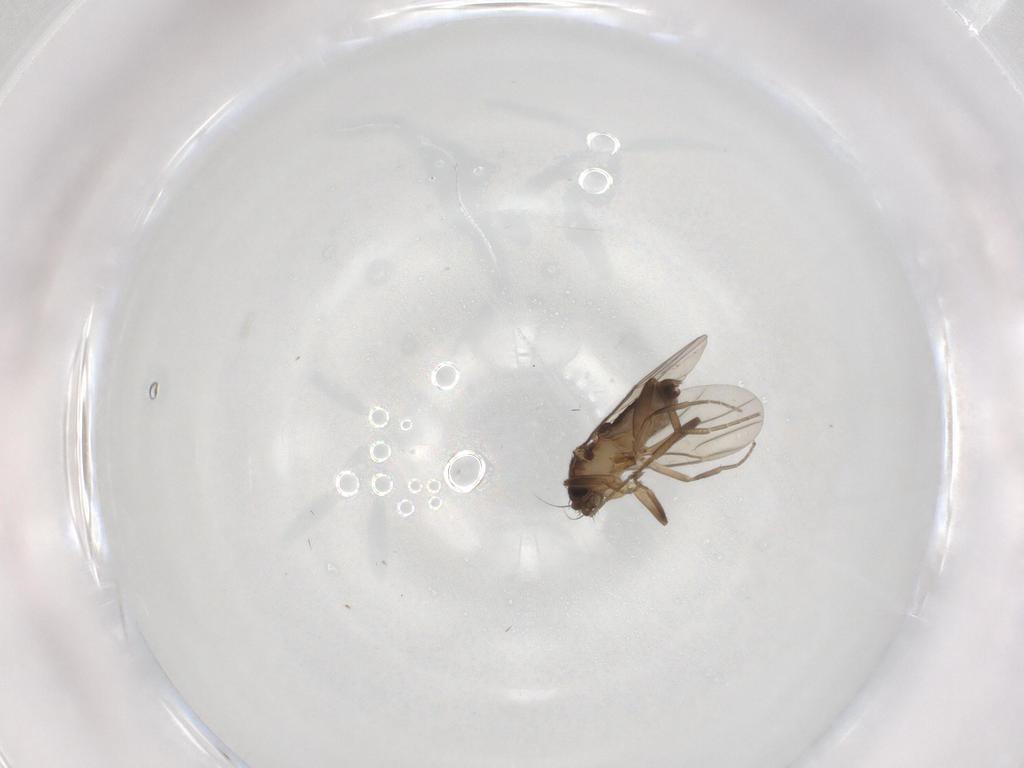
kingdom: Animalia
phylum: Arthropoda
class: Insecta
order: Diptera
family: Phoridae
